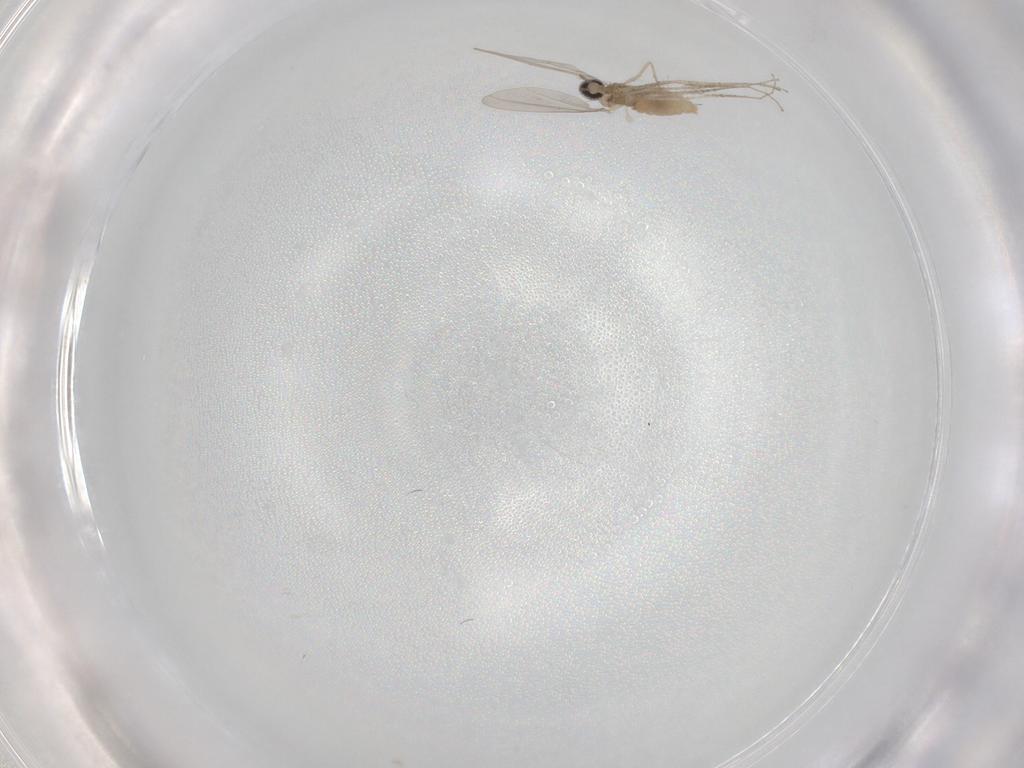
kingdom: Animalia
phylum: Arthropoda
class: Insecta
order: Diptera
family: Cecidomyiidae
